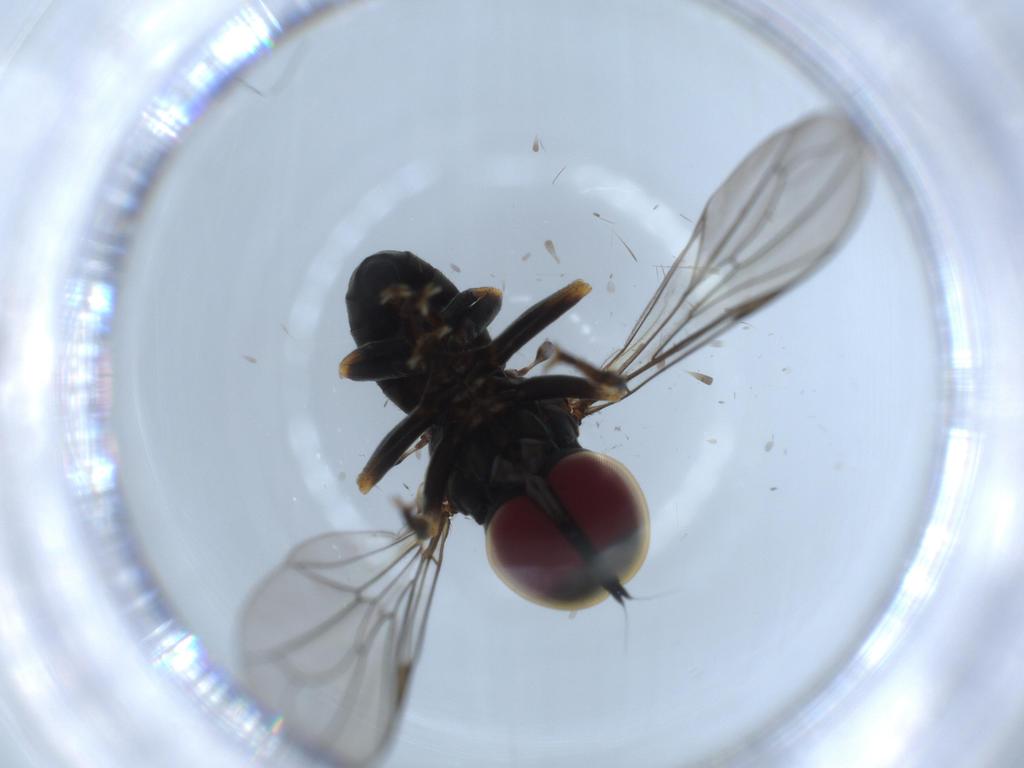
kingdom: Animalia
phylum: Arthropoda
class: Insecta
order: Diptera
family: Pipunculidae
